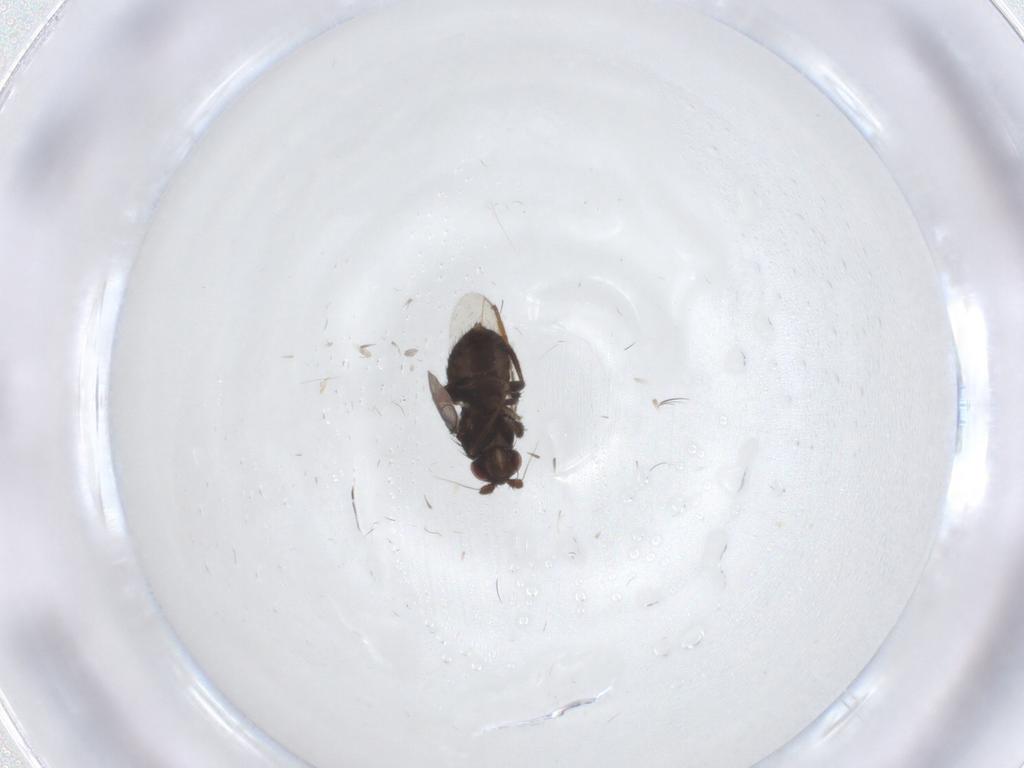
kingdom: Animalia
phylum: Arthropoda
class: Insecta
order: Diptera
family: Sphaeroceridae
